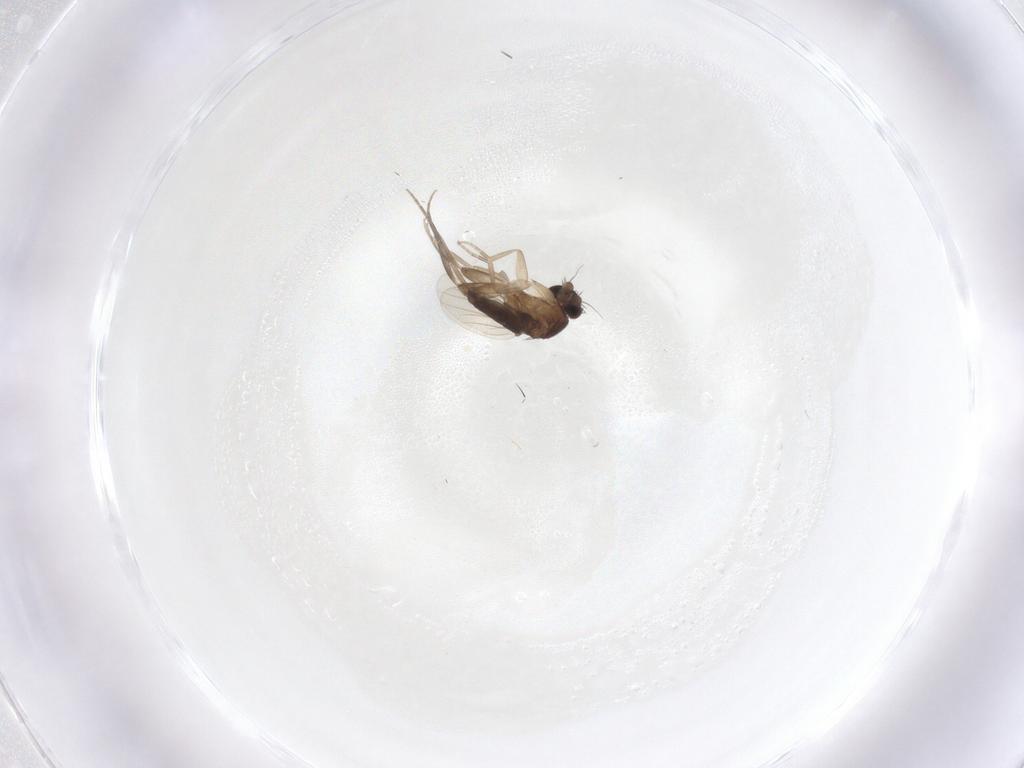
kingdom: Animalia
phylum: Arthropoda
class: Insecta
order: Diptera
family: Phoridae
